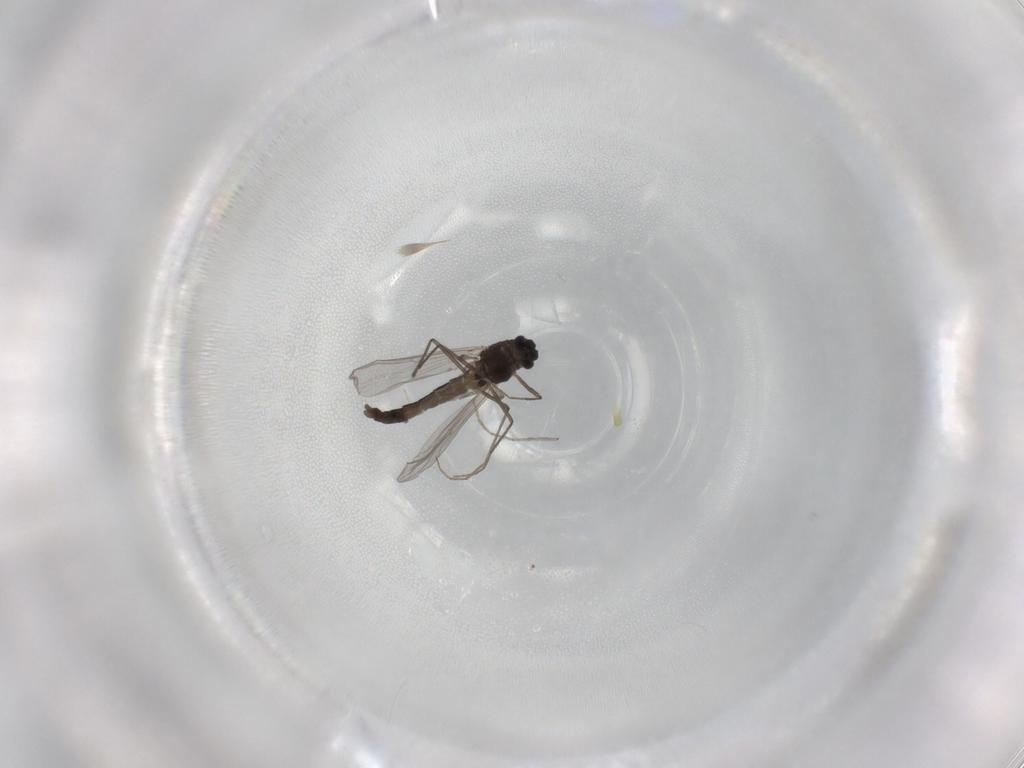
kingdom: Animalia
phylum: Arthropoda
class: Insecta
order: Diptera
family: Chironomidae
